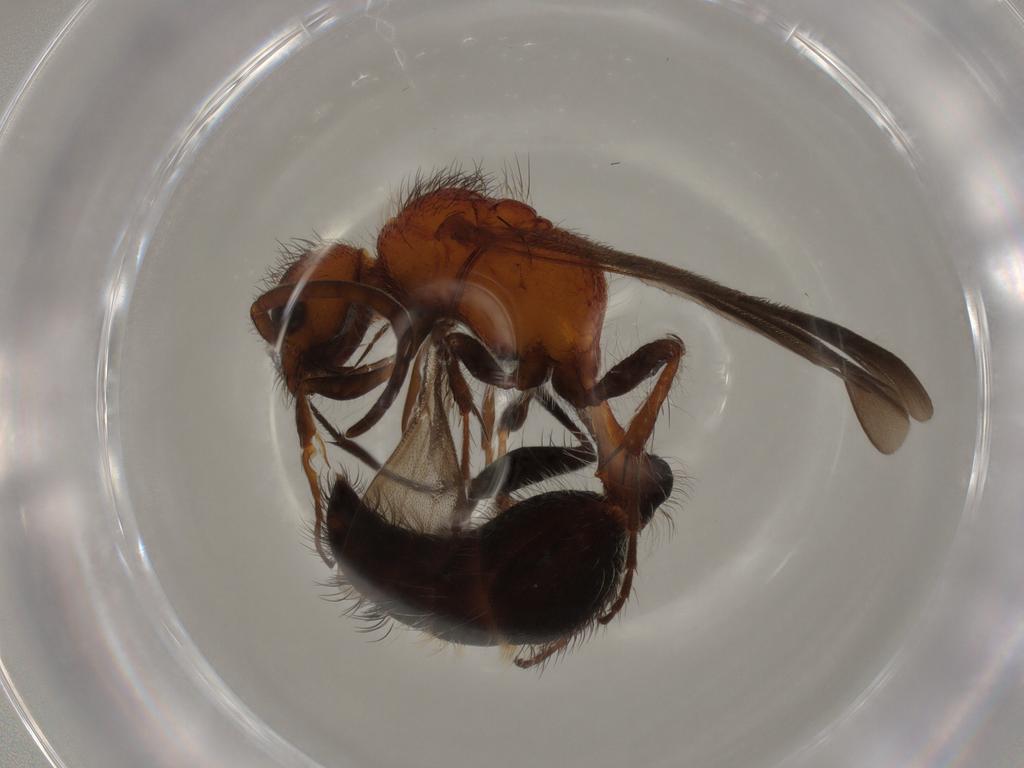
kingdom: Animalia
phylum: Arthropoda
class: Insecta
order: Hymenoptera
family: Mutillidae
